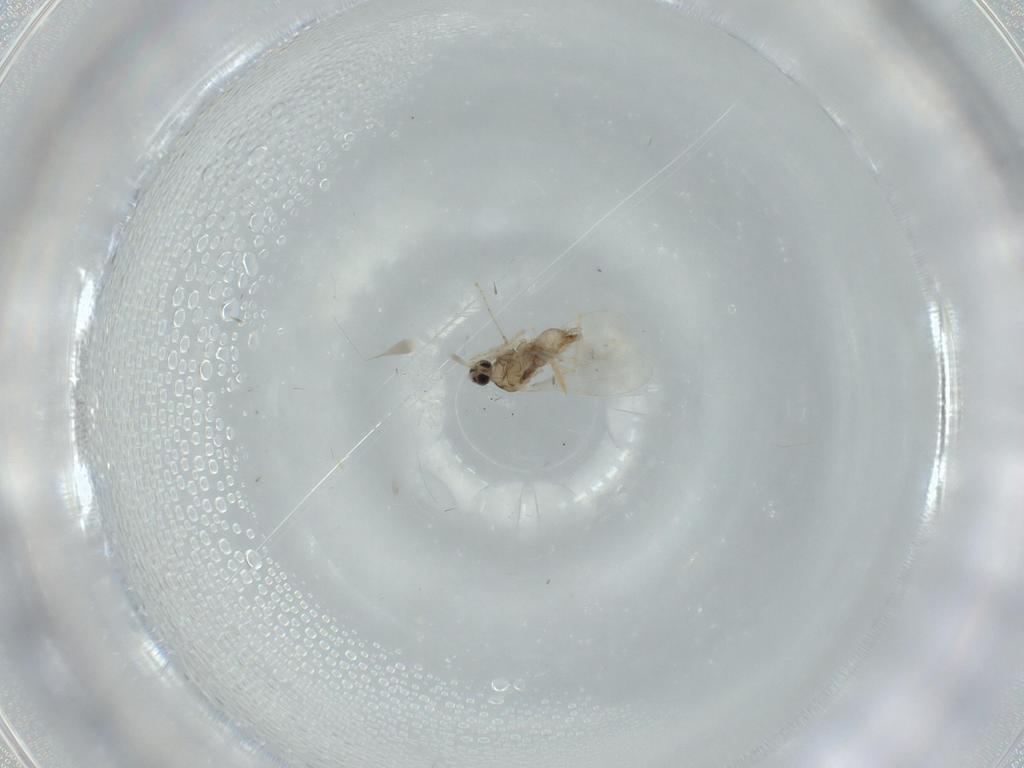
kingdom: Animalia
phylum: Arthropoda
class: Insecta
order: Diptera
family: Cecidomyiidae
